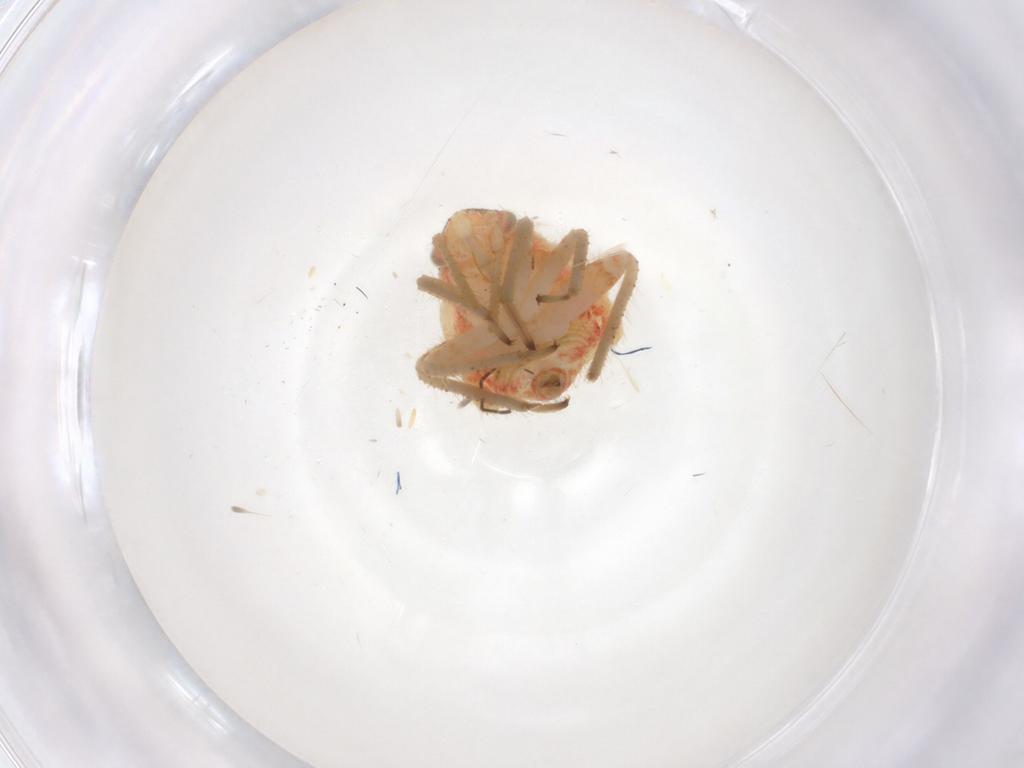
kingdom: Animalia
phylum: Arthropoda
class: Insecta
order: Hemiptera
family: Miridae
